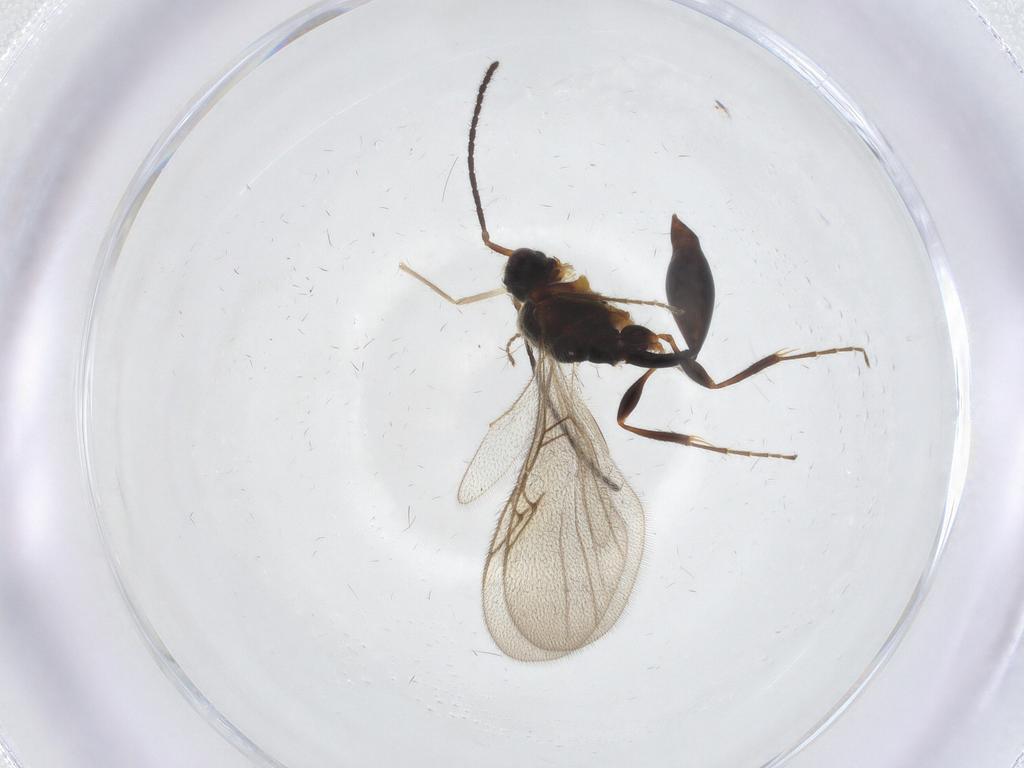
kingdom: Animalia
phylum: Arthropoda
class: Insecta
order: Hymenoptera
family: Diapriidae
